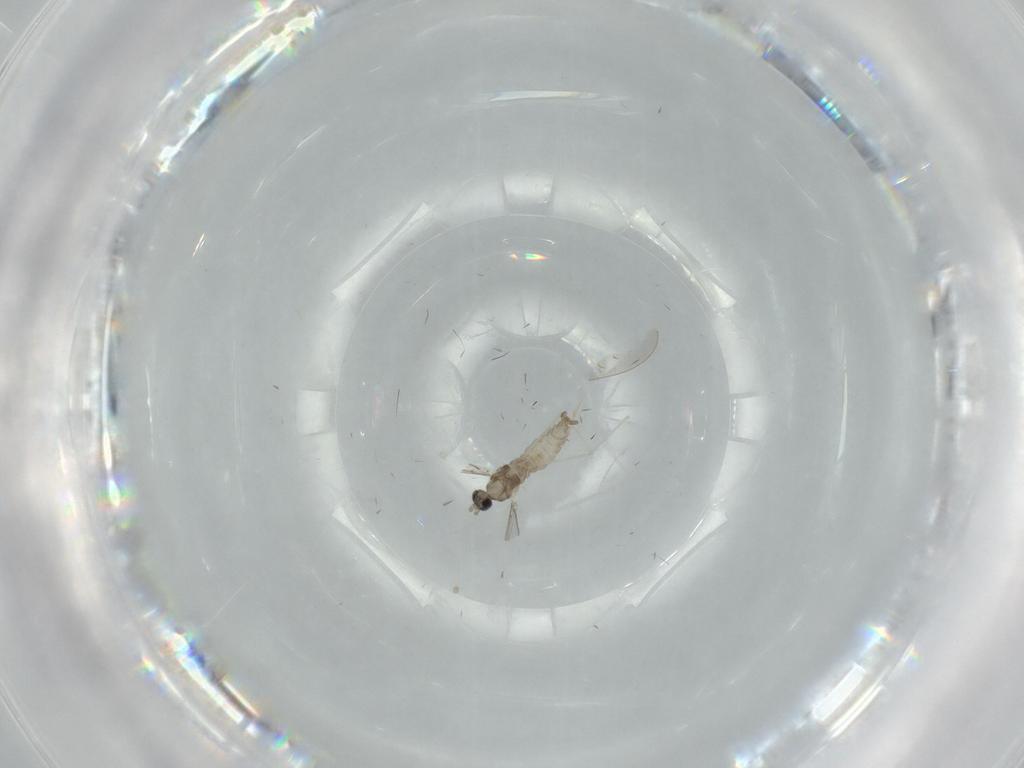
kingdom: Animalia
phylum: Arthropoda
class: Insecta
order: Diptera
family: Cecidomyiidae
